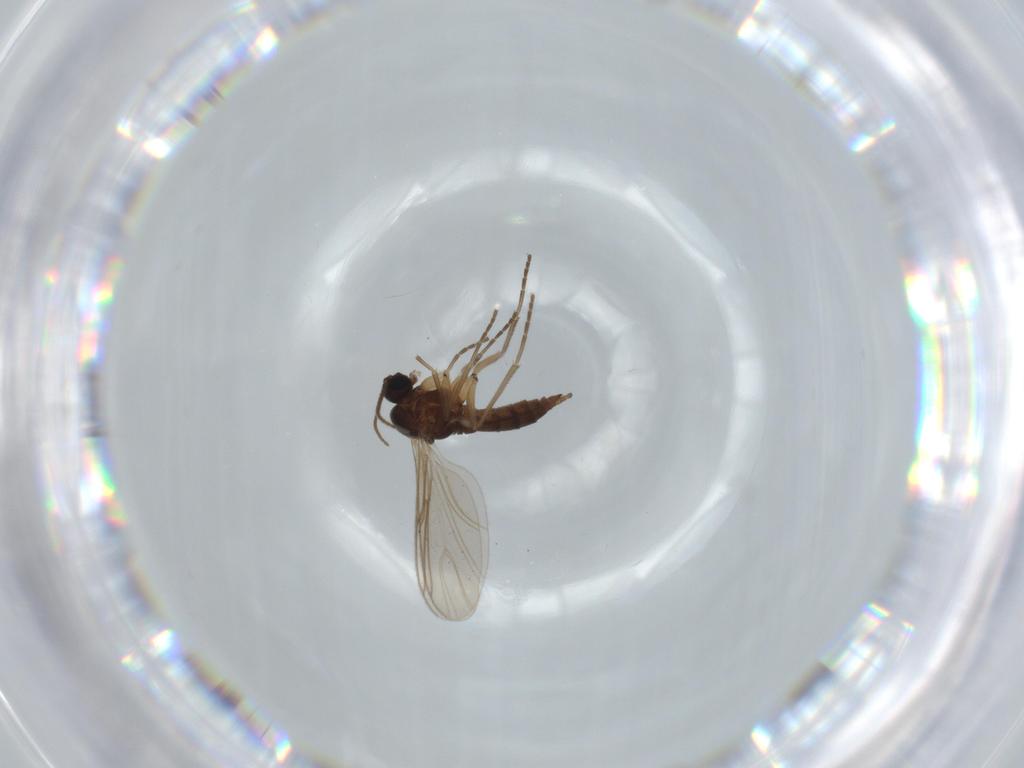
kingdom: Animalia
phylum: Arthropoda
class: Insecta
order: Diptera
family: Sciaridae
